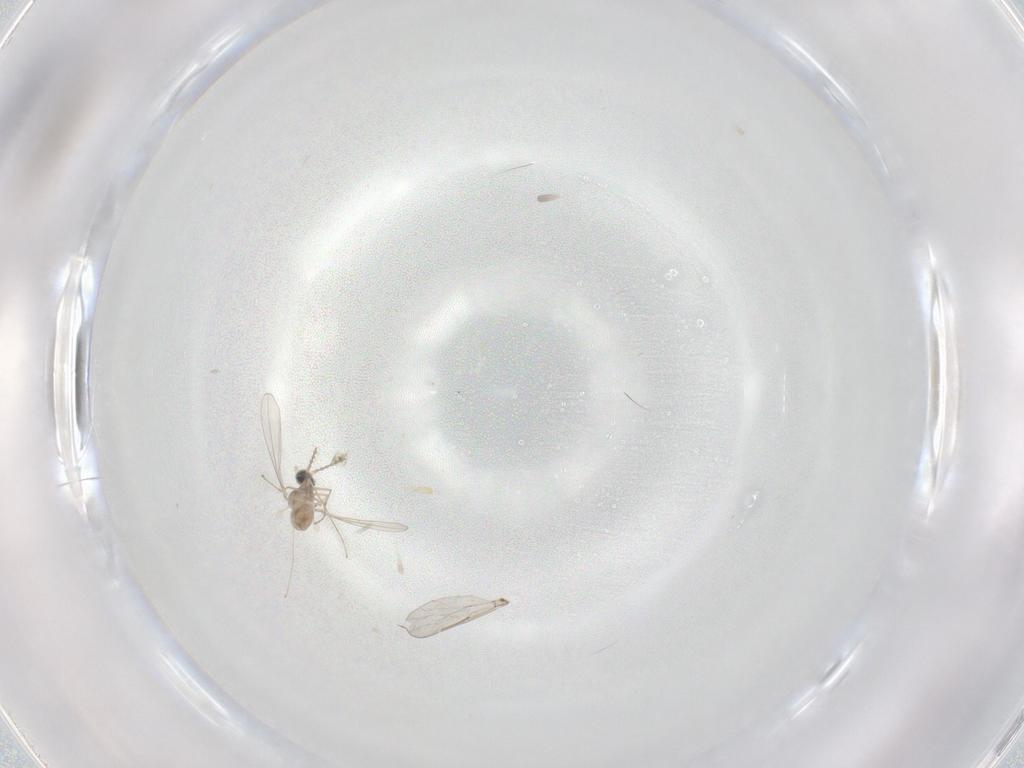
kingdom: Animalia
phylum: Arthropoda
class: Insecta
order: Diptera
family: Cecidomyiidae
